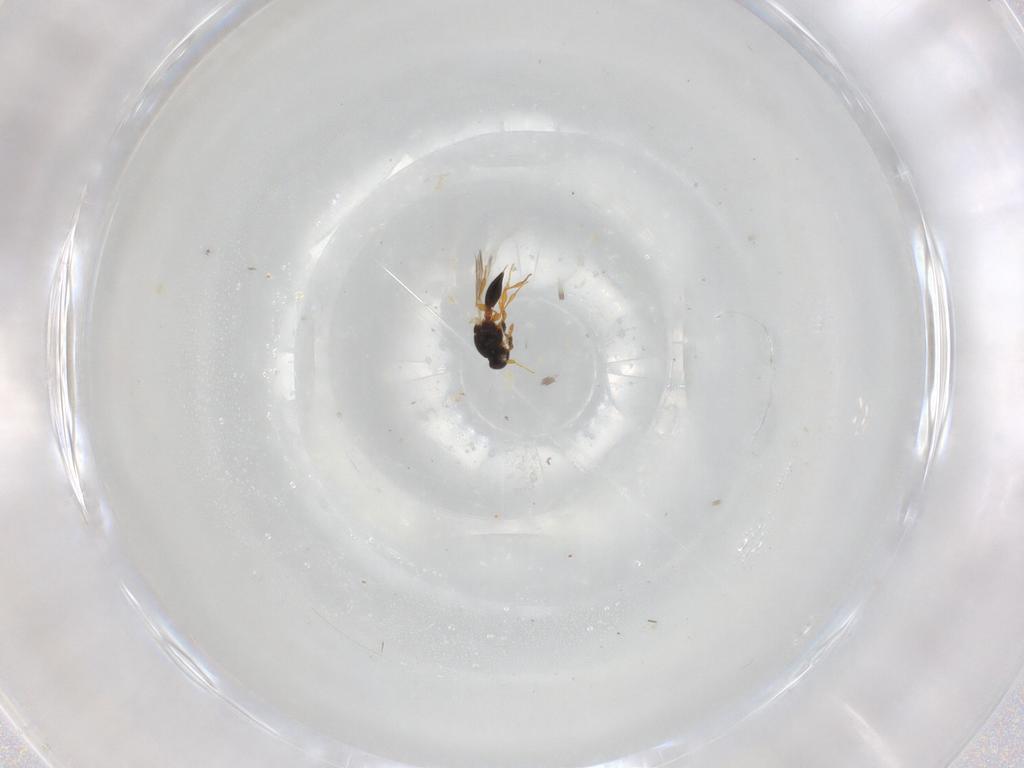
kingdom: Animalia
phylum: Arthropoda
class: Insecta
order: Hymenoptera
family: Platygastridae
